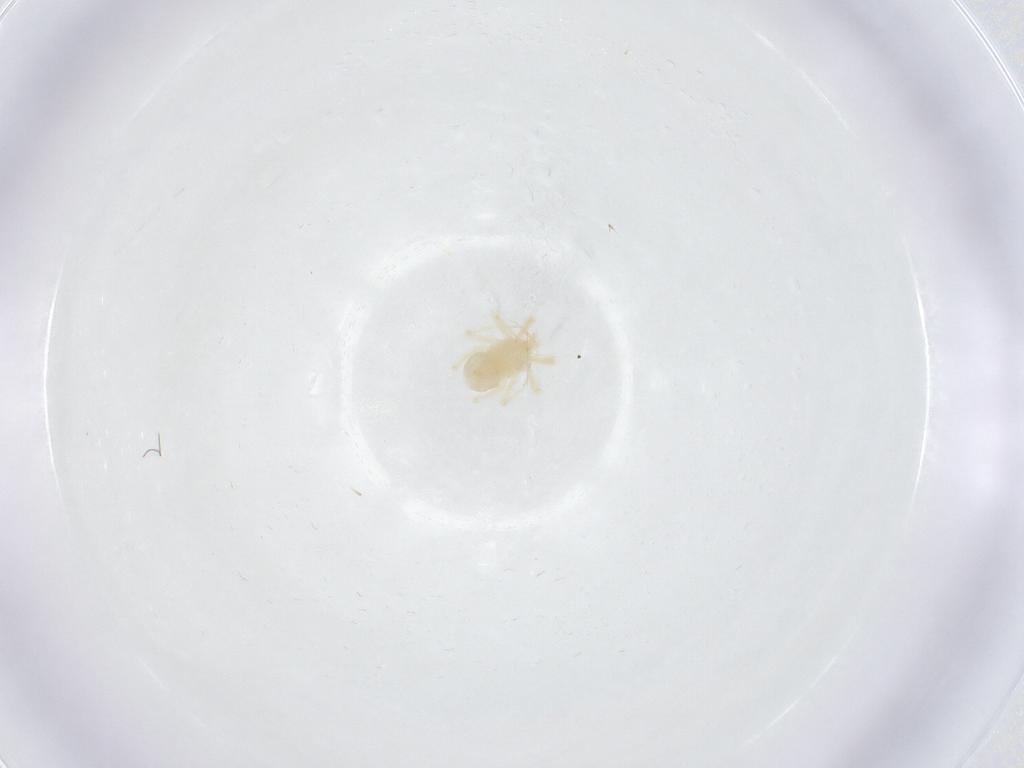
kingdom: Animalia
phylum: Arthropoda
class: Arachnida
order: Trombidiformes
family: Anystidae
